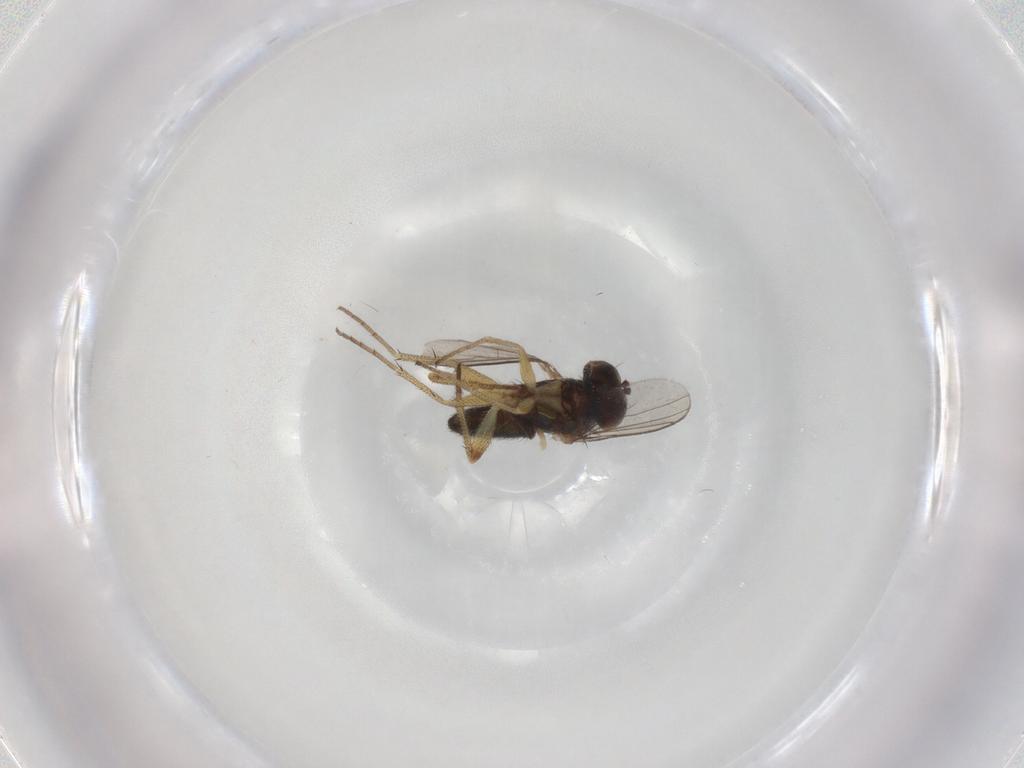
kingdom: Animalia
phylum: Arthropoda
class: Insecta
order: Diptera
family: Dolichopodidae
